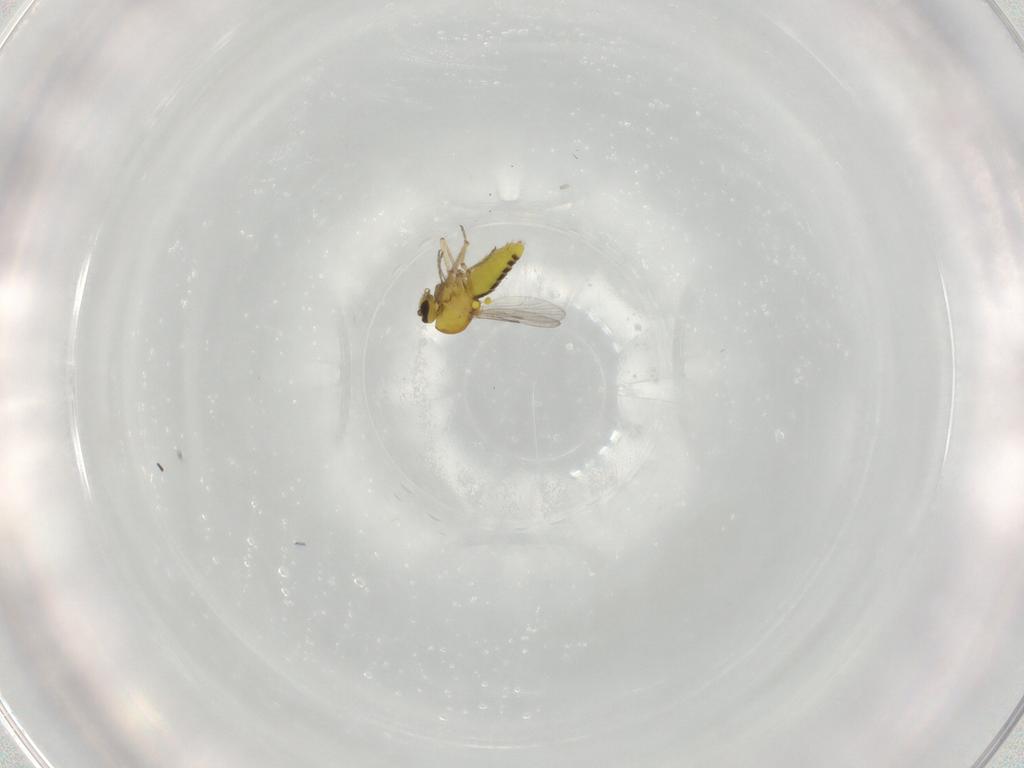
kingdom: Animalia
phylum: Arthropoda
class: Insecta
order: Diptera
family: Ceratopogonidae
